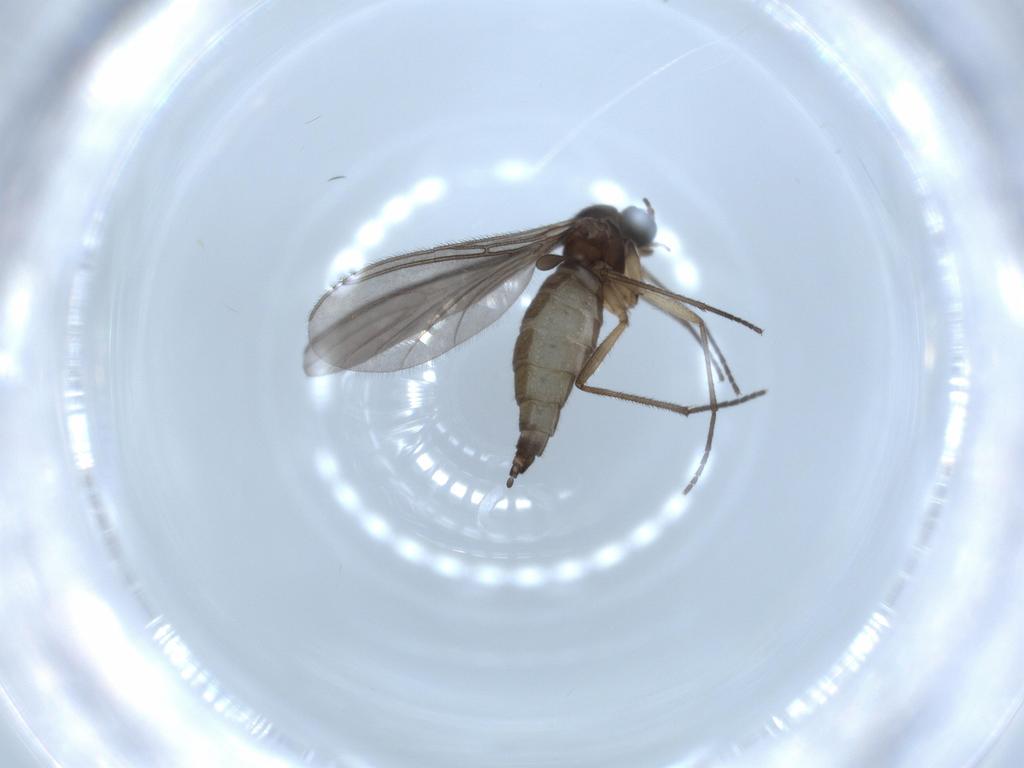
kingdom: Animalia
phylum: Arthropoda
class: Insecta
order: Diptera
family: Sciaridae
